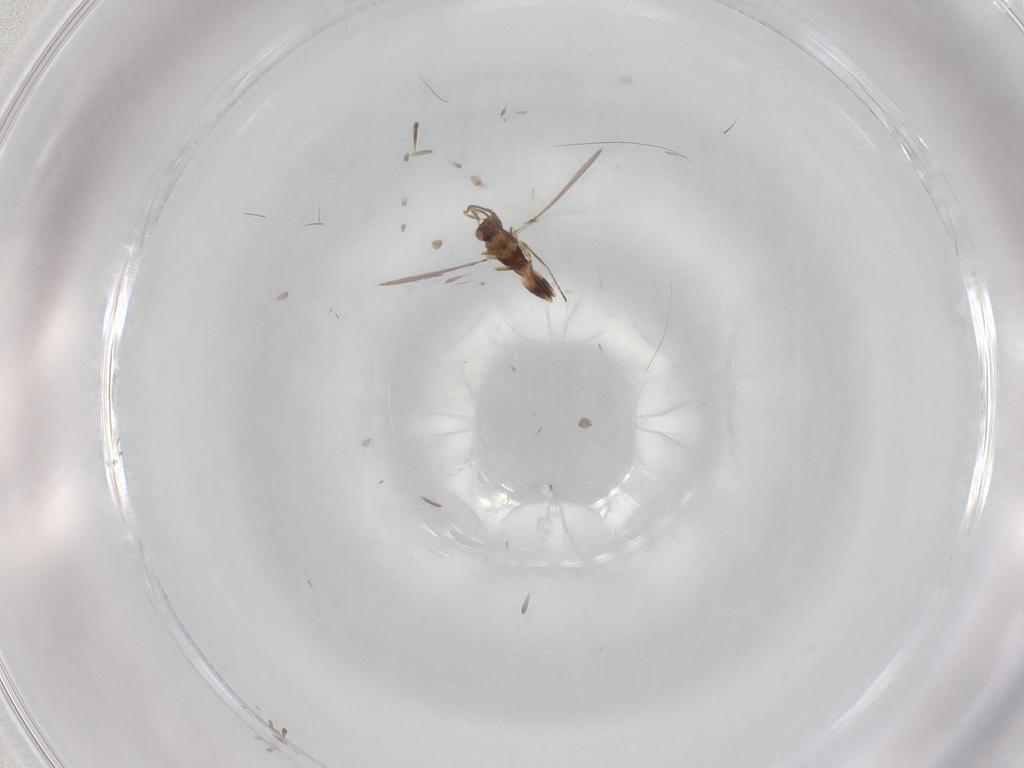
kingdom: Animalia
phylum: Arthropoda
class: Insecta
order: Hymenoptera
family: Mymaridae
